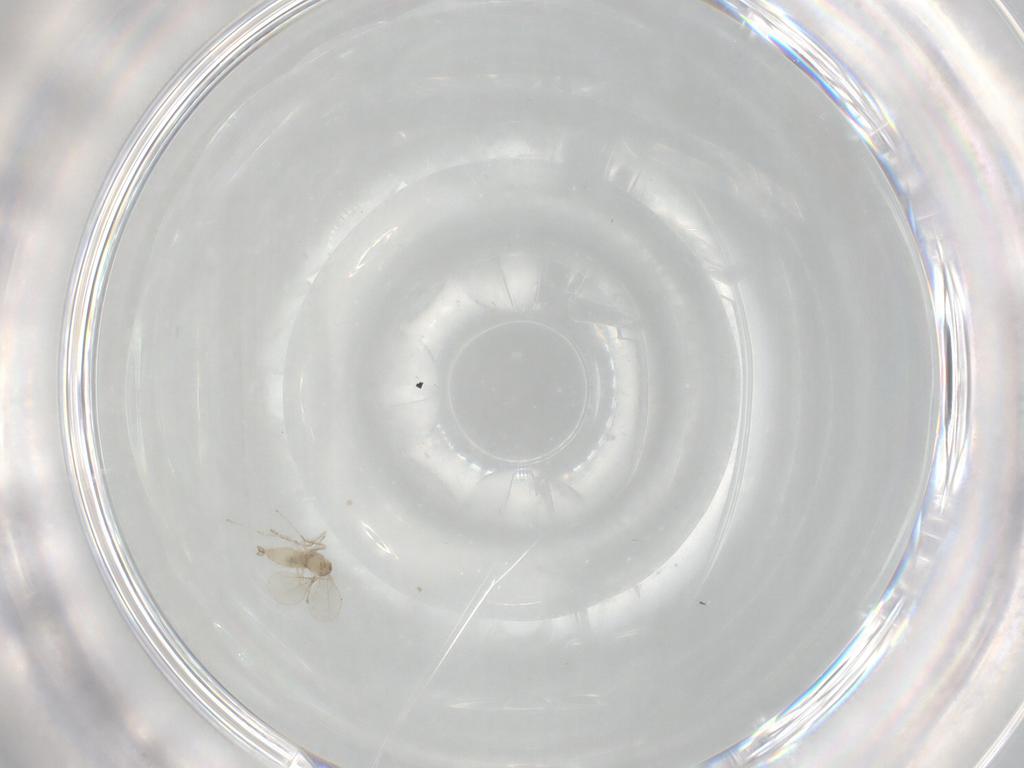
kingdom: Animalia
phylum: Arthropoda
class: Insecta
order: Diptera
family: Cecidomyiidae
